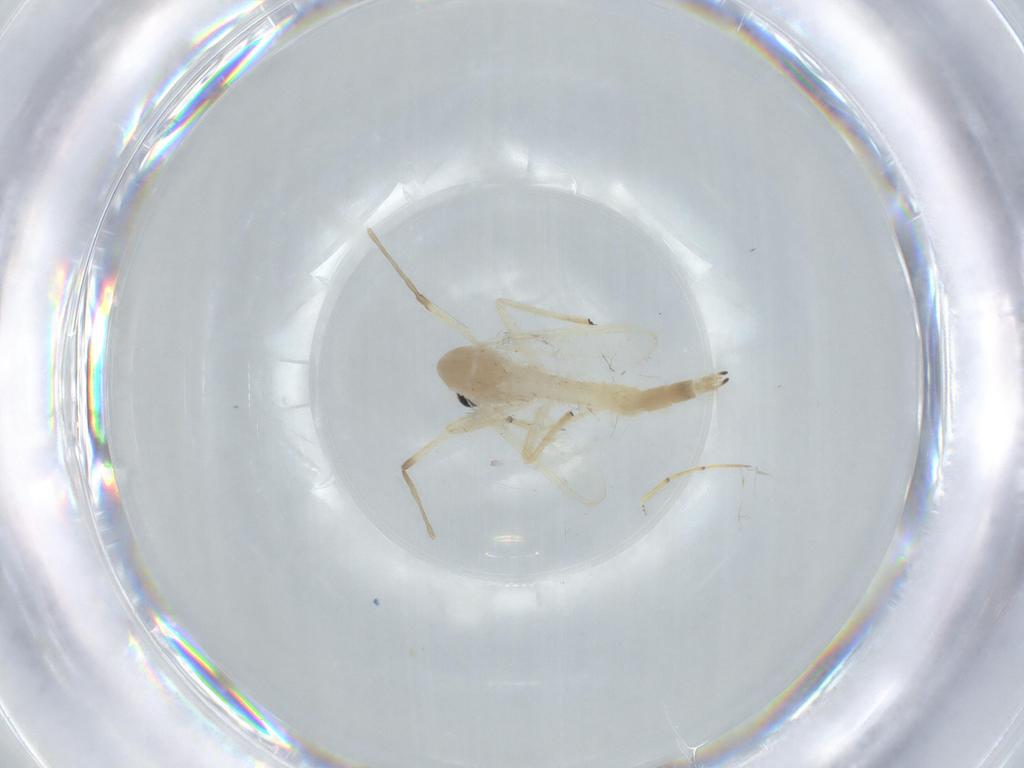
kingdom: Animalia
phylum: Arthropoda
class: Insecta
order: Diptera
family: Chironomidae
